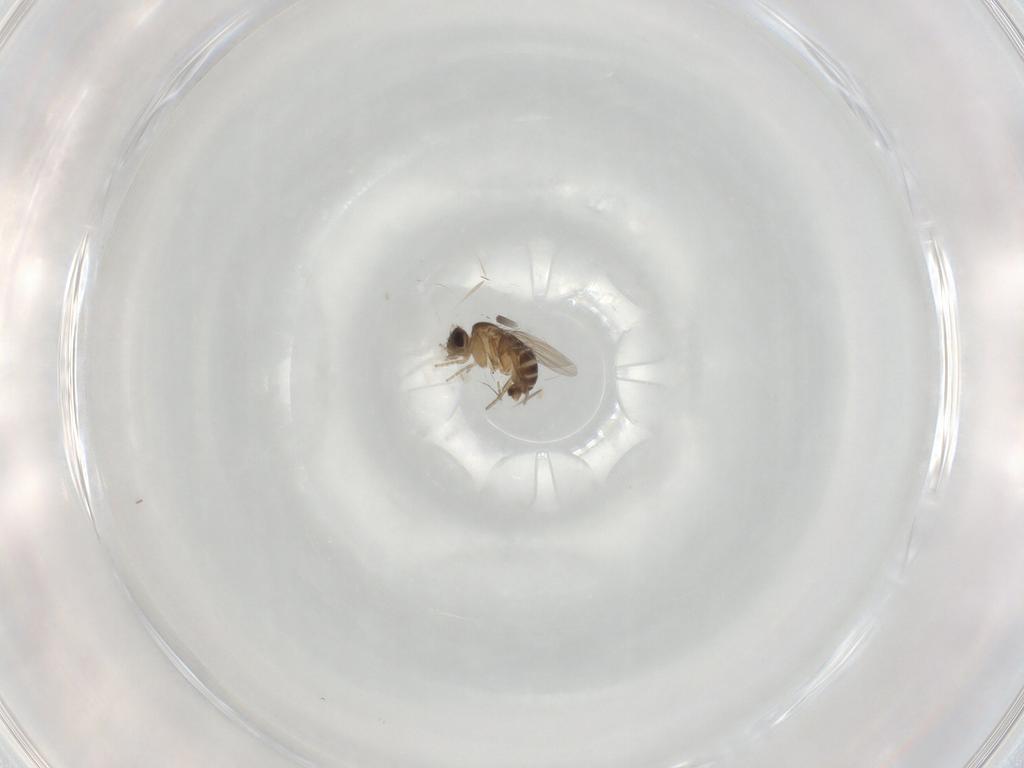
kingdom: Animalia
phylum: Arthropoda
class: Insecta
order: Diptera
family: Phoridae
